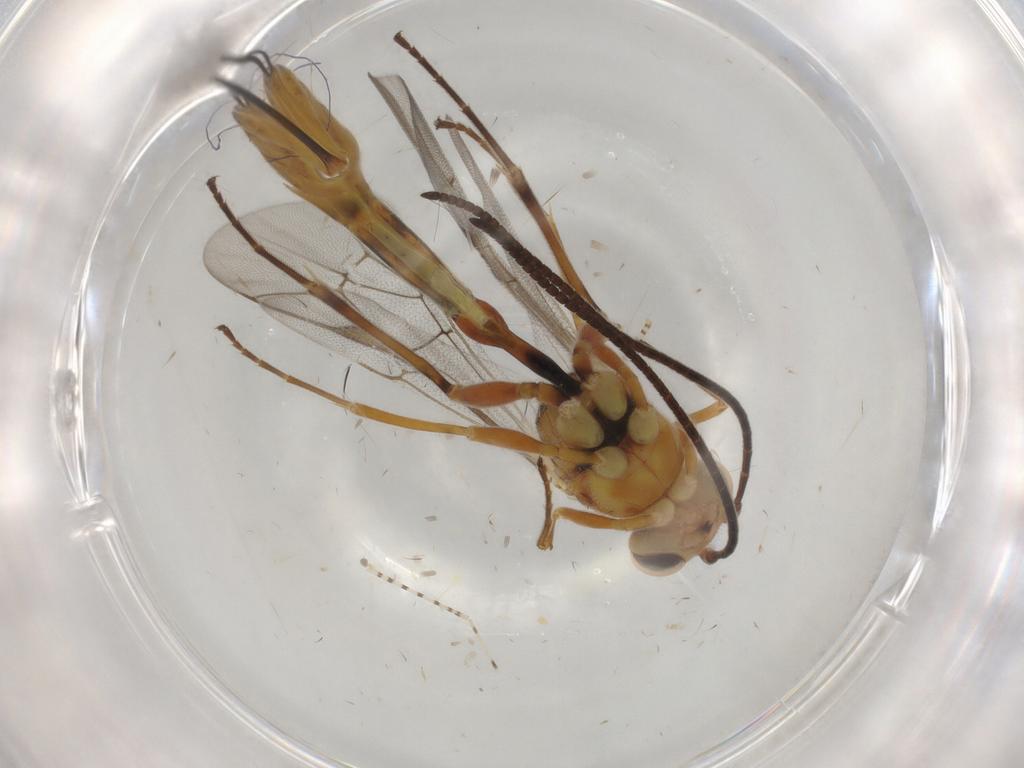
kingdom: Animalia
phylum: Arthropoda
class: Insecta
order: Hymenoptera
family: Ichneumonidae
